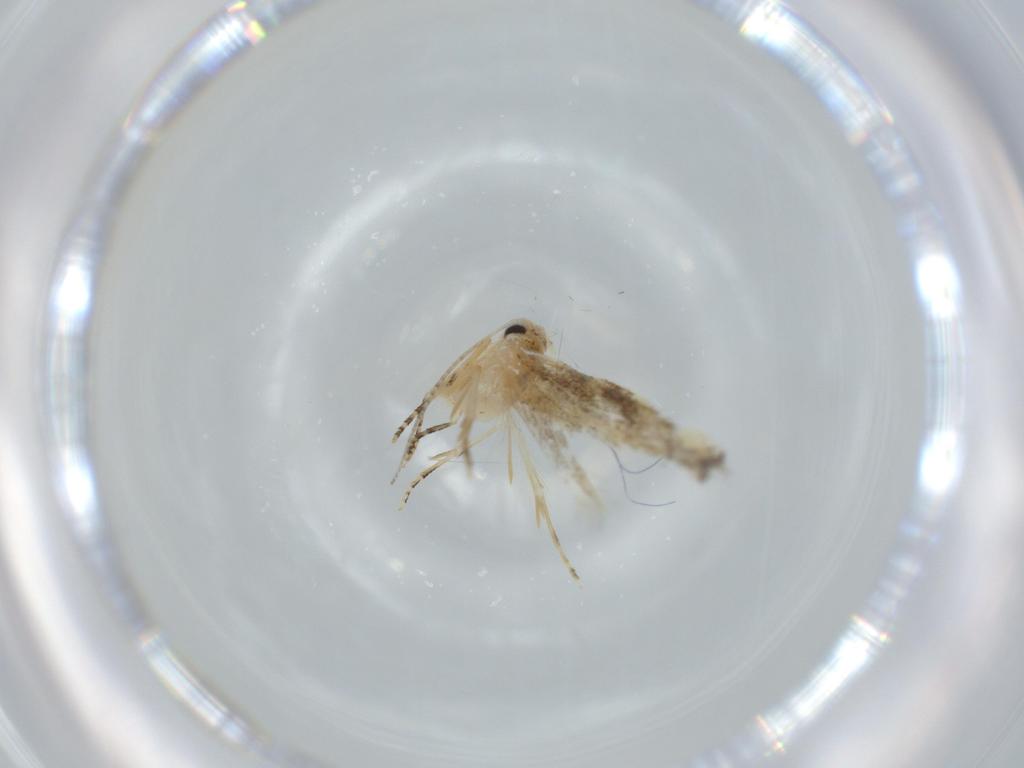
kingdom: Animalia
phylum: Arthropoda
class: Insecta
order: Lepidoptera
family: Bucculatricidae
